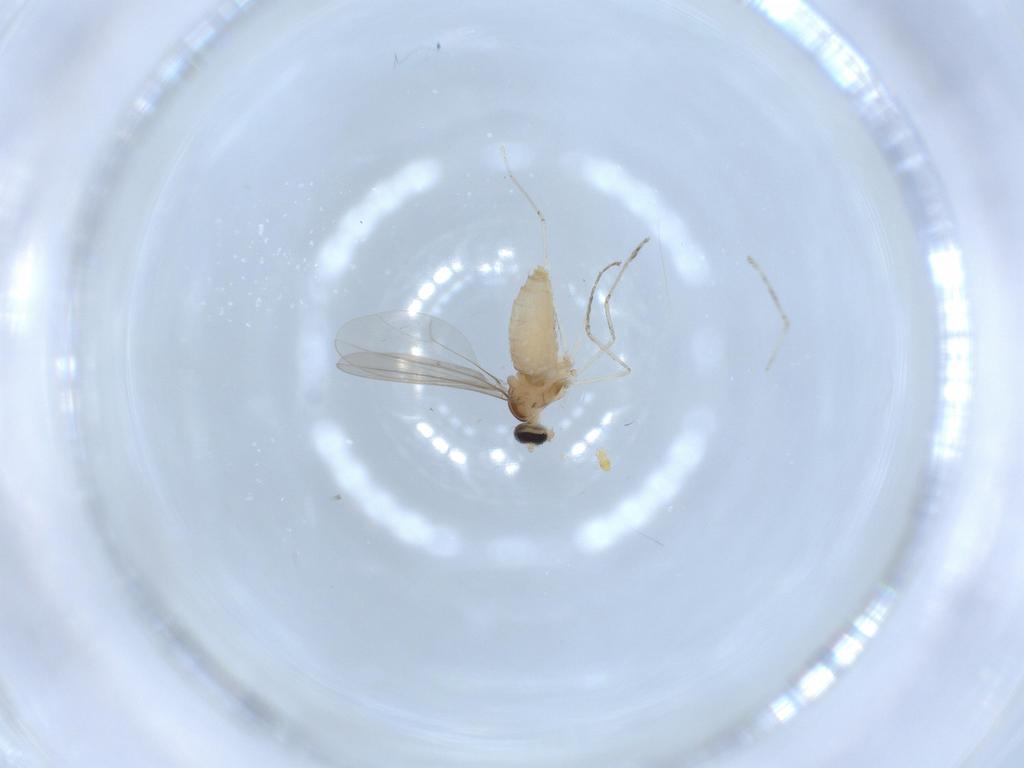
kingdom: Animalia
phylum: Arthropoda
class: Insecta
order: Diptera
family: Cecidomyiidae
